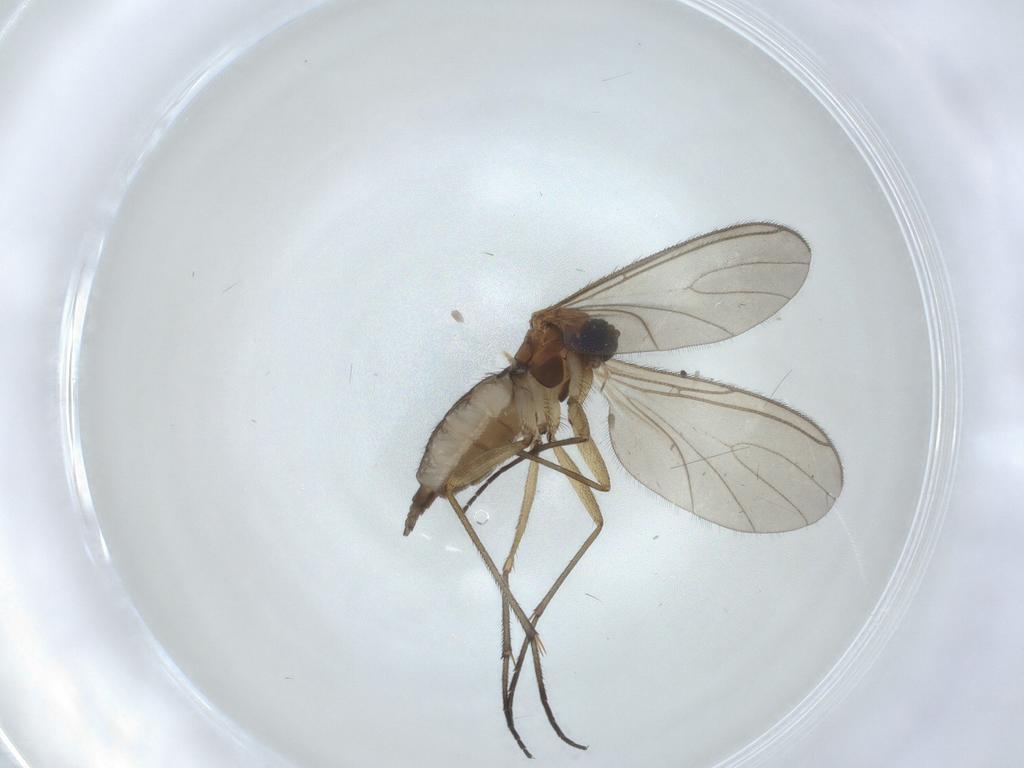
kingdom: Animalia
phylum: Arthropoda
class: Insecta
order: Diptera
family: Sciaridae
